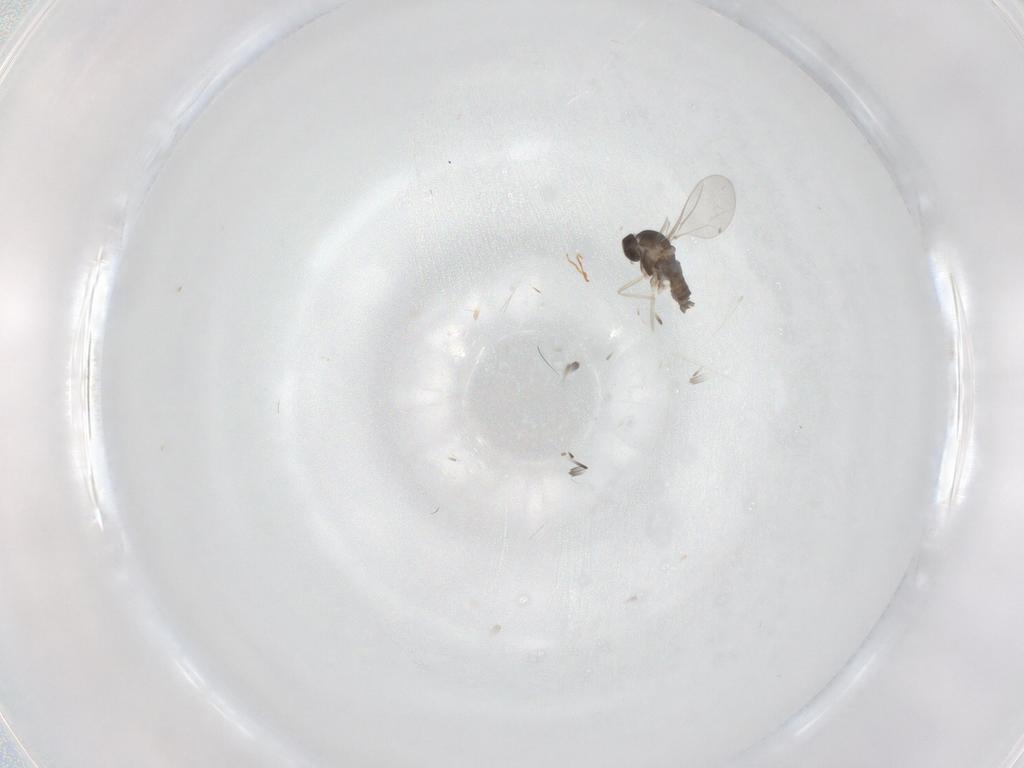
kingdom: Animalia
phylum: Arthropoda
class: Insecta
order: Diptera
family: Cecidomyiidae
